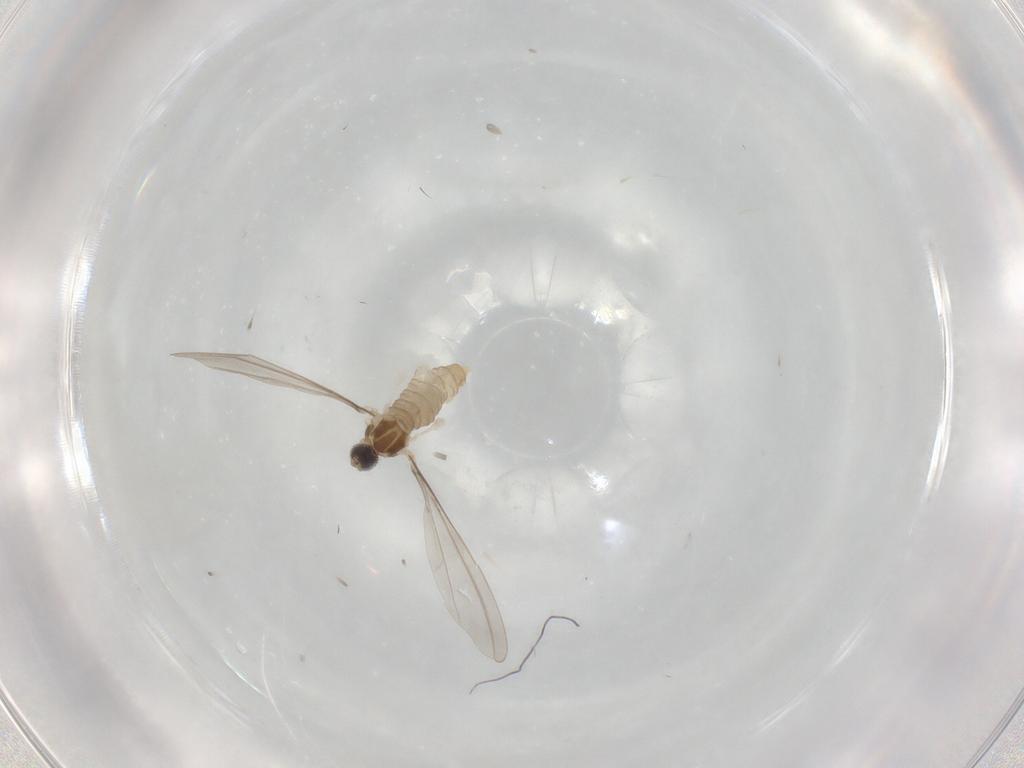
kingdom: Animalia
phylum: Arthropoda
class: Insecta
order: Diptera
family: Cecidomyiidae
